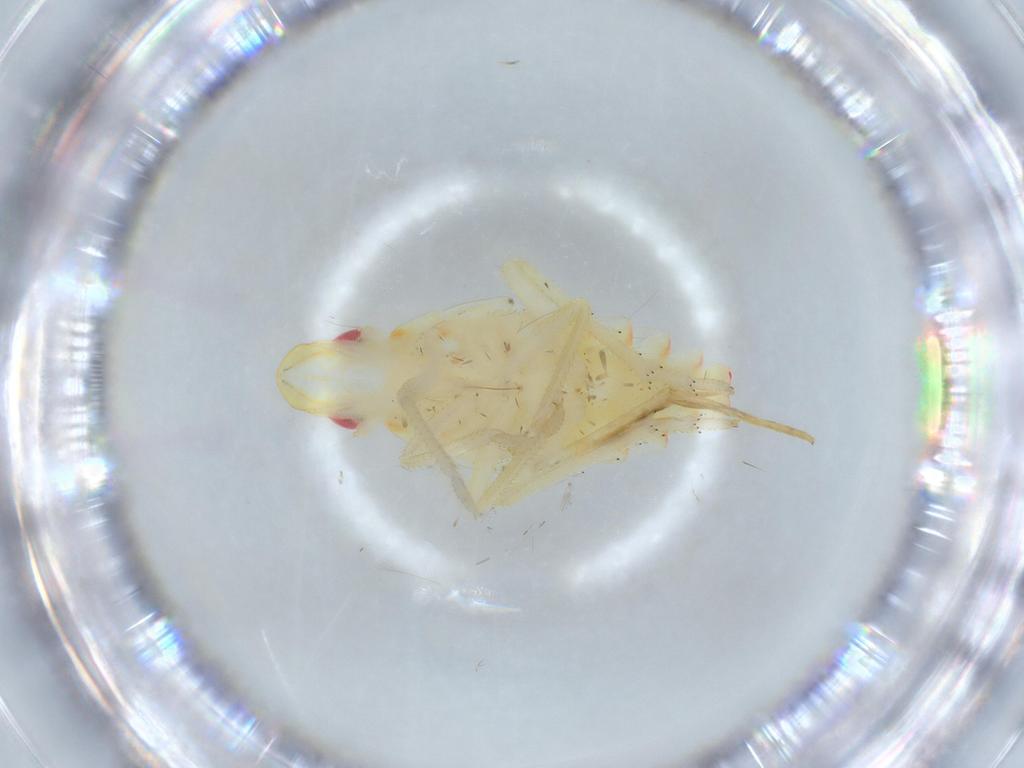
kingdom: Animalia
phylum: Arthropoda
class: Insecta
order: Hemiptera
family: Tropiduchidae
